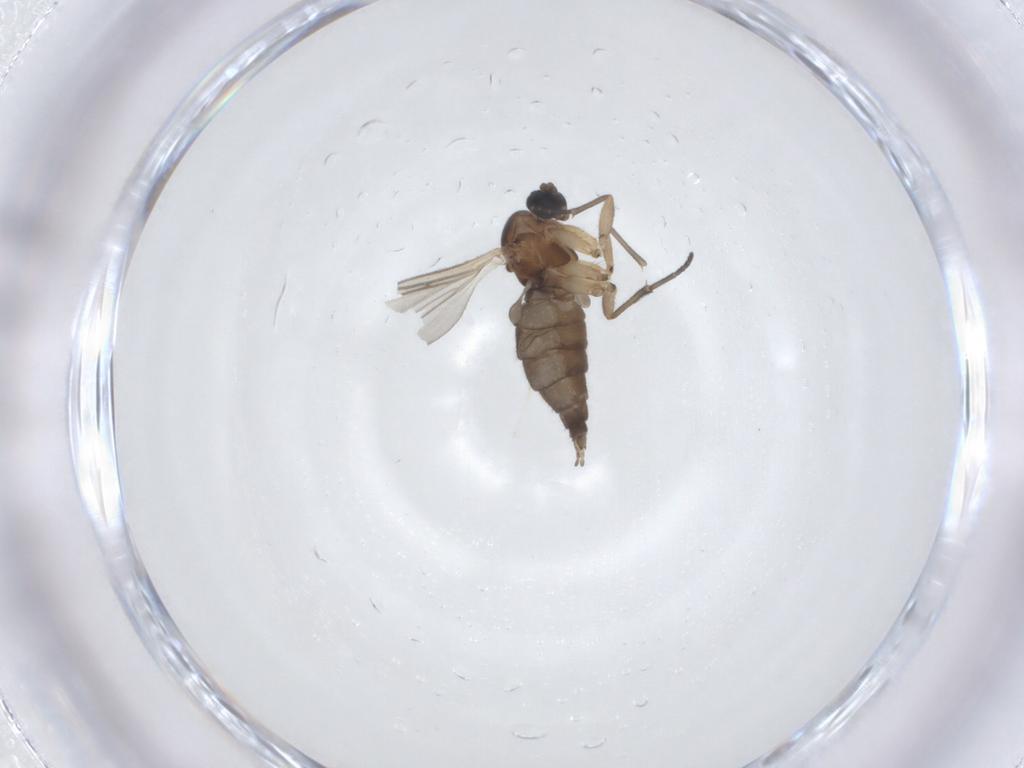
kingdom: Animalia
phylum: Arthropoda
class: Insecta
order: Diptera
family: Sciaridae
